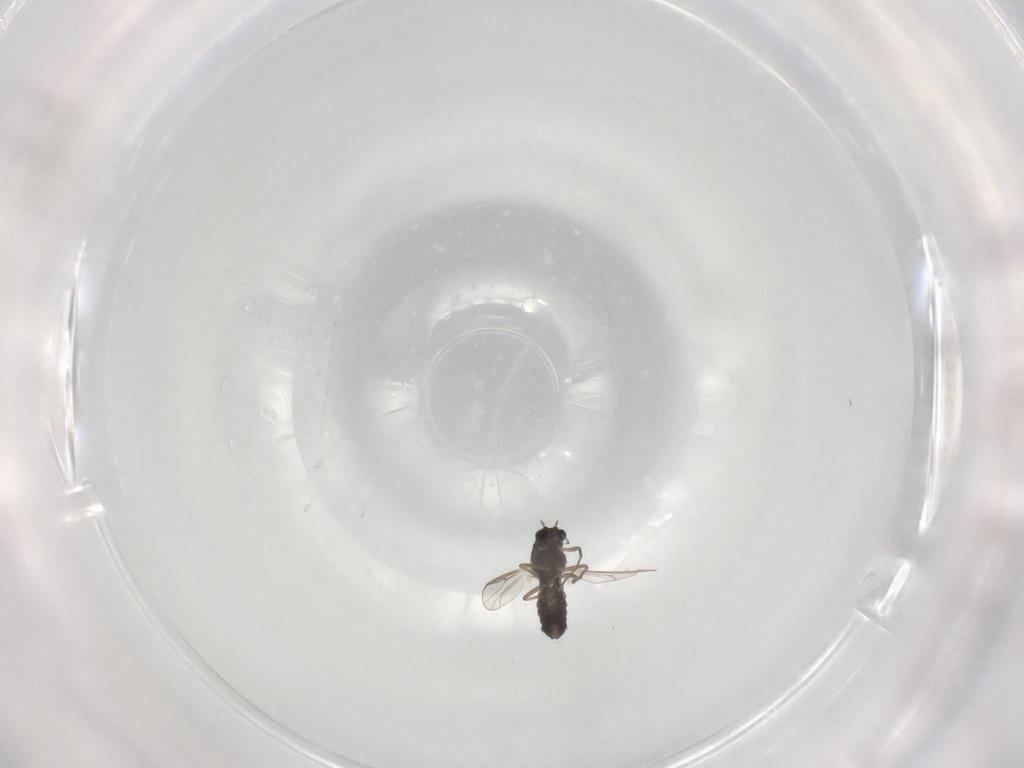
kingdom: Animalia
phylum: Arthropoda
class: Insecta
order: Diptera
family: Chironomidae
